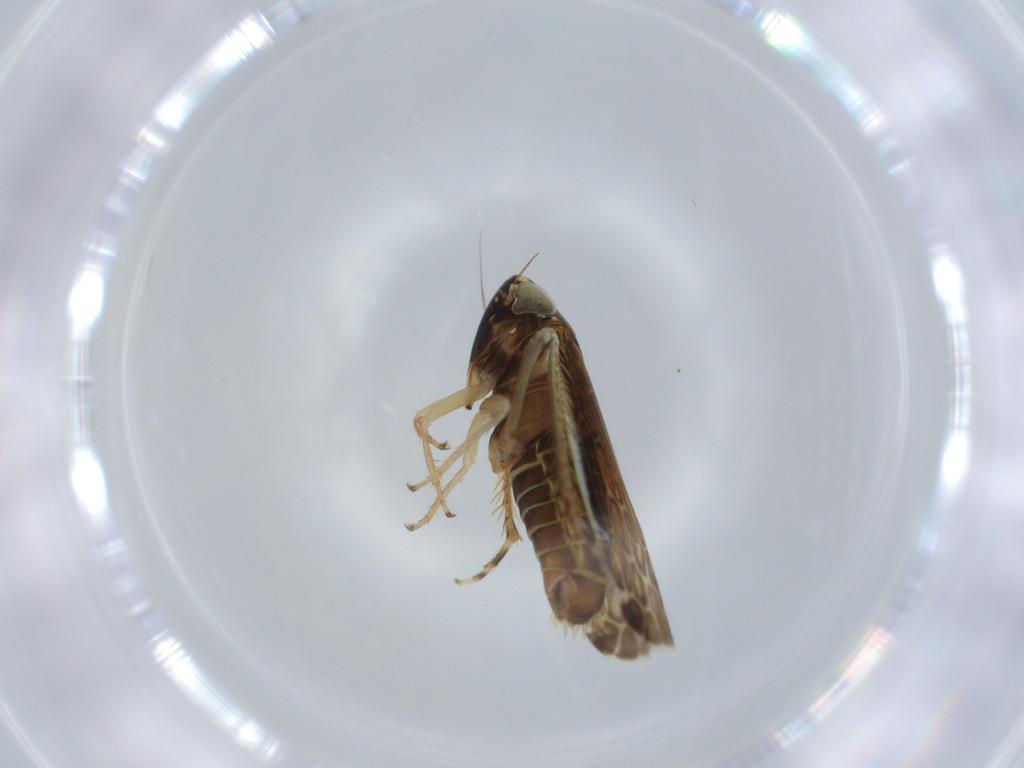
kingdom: Animalia
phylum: Arthropoda
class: Insecta
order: Hemiptera
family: Cicadellidae
